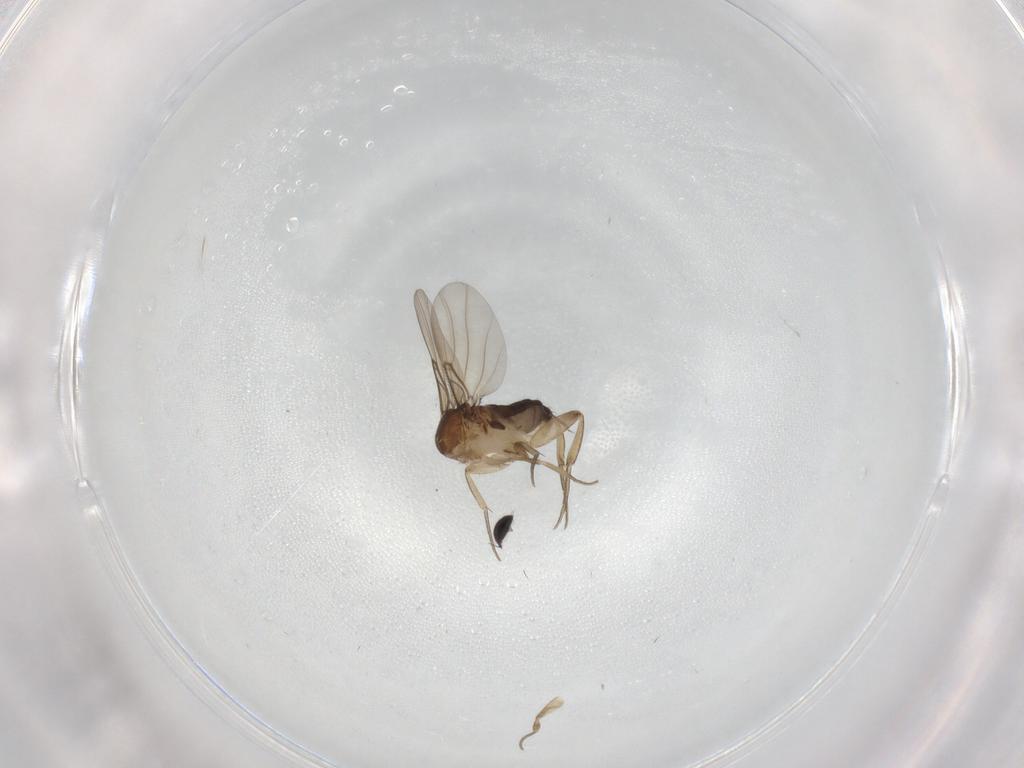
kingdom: Animalia
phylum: Arthropoda
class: Insecta
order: Diptera
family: Phoridae
